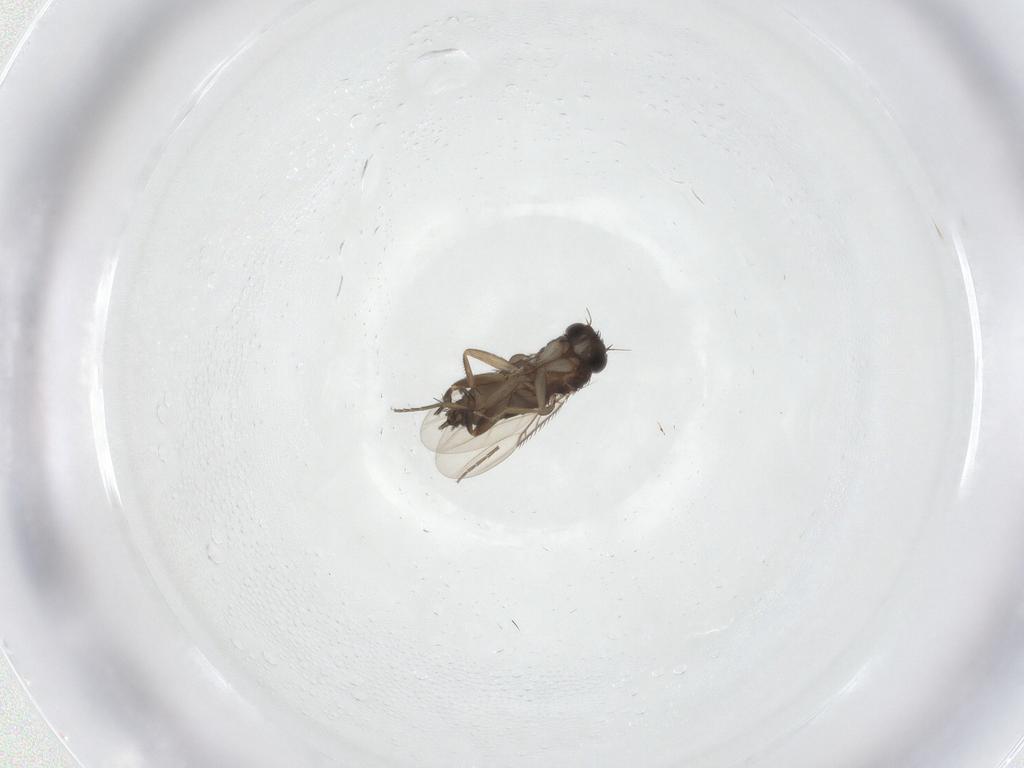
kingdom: Animalia
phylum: Arthropoda
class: Insecta
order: Diptera
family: Phoridae
